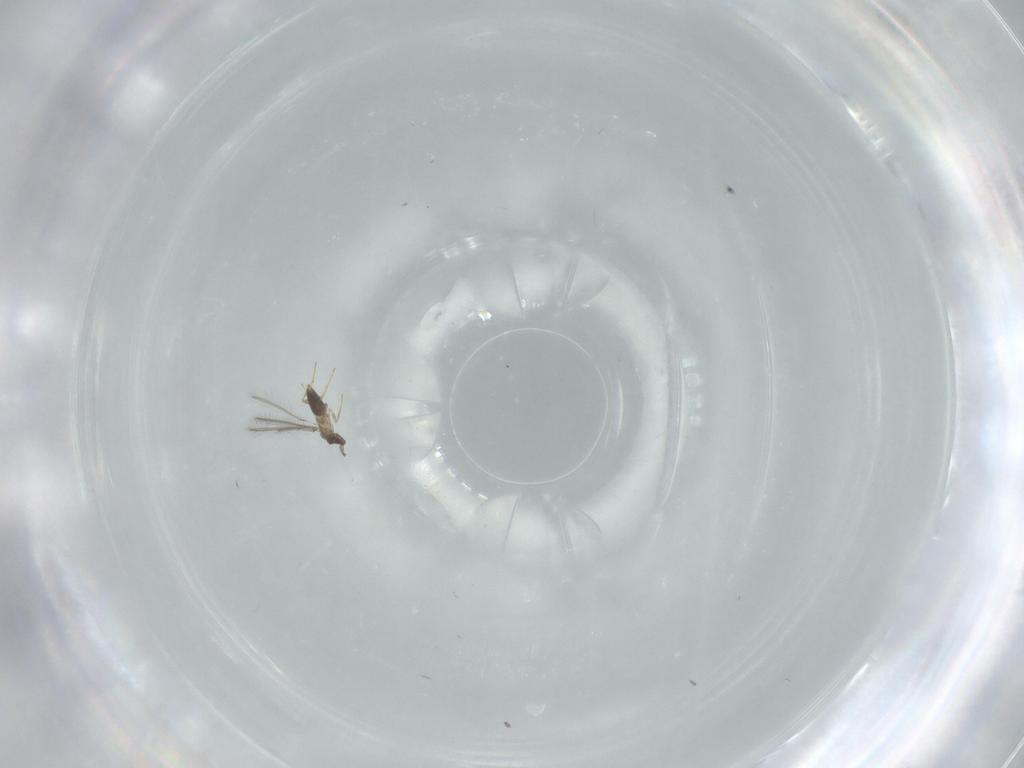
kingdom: Animalia
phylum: Arthropoda
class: Insecta
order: Hymenoptera
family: Mymaridae
